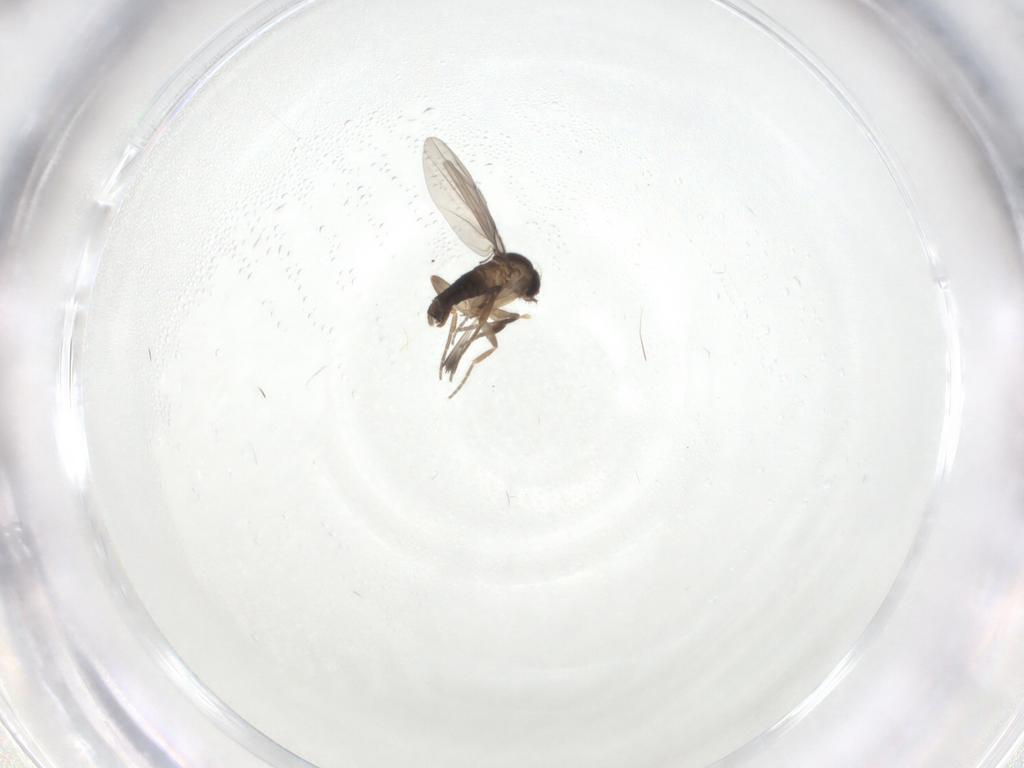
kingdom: Animalia
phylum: Arthropoda
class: Insecta
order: Diptera
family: Phoridae
